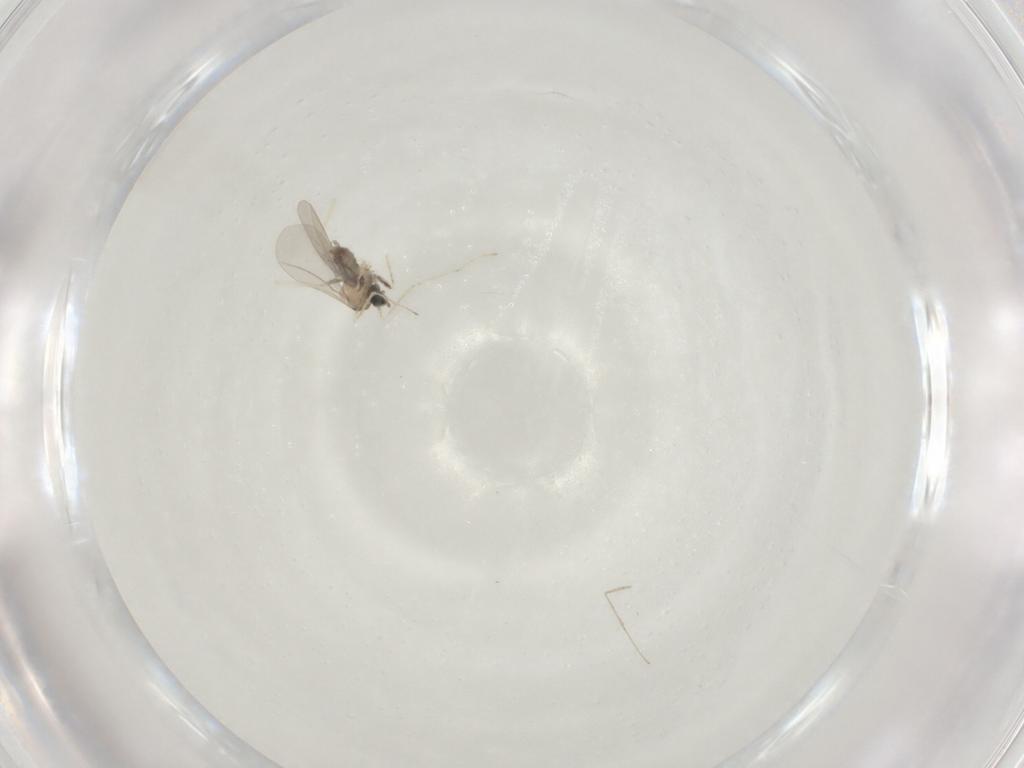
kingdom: Animalia
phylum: Arthropoda
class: Insecta
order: Diptera
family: Cecidomyiidae
